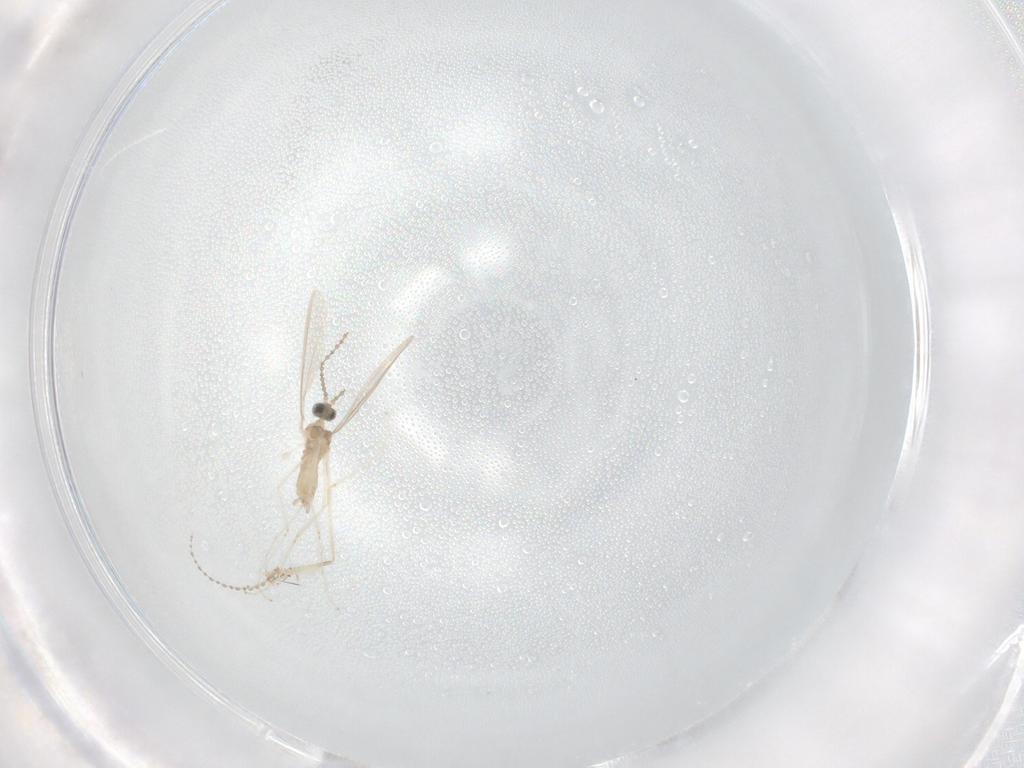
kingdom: Animalia
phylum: Arthropoda
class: Insecta
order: Diptera
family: Cecidomyiidae
